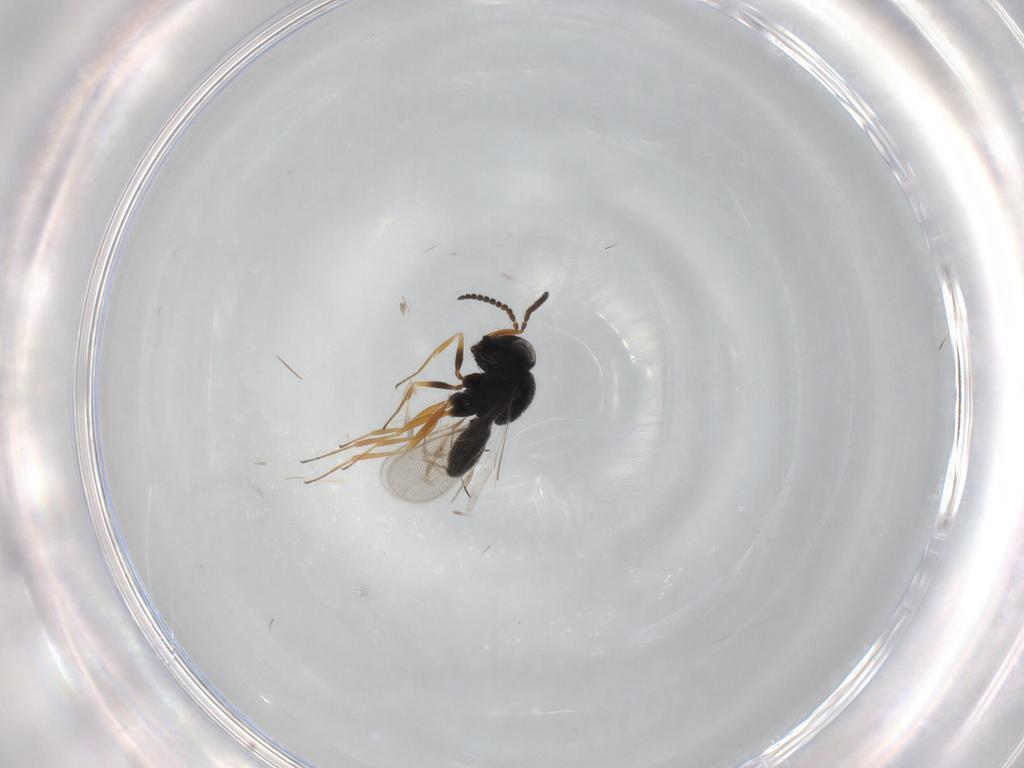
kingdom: Animalia
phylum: Arthropoda
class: Insecta
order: Hymenoptera
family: Scelionidae
